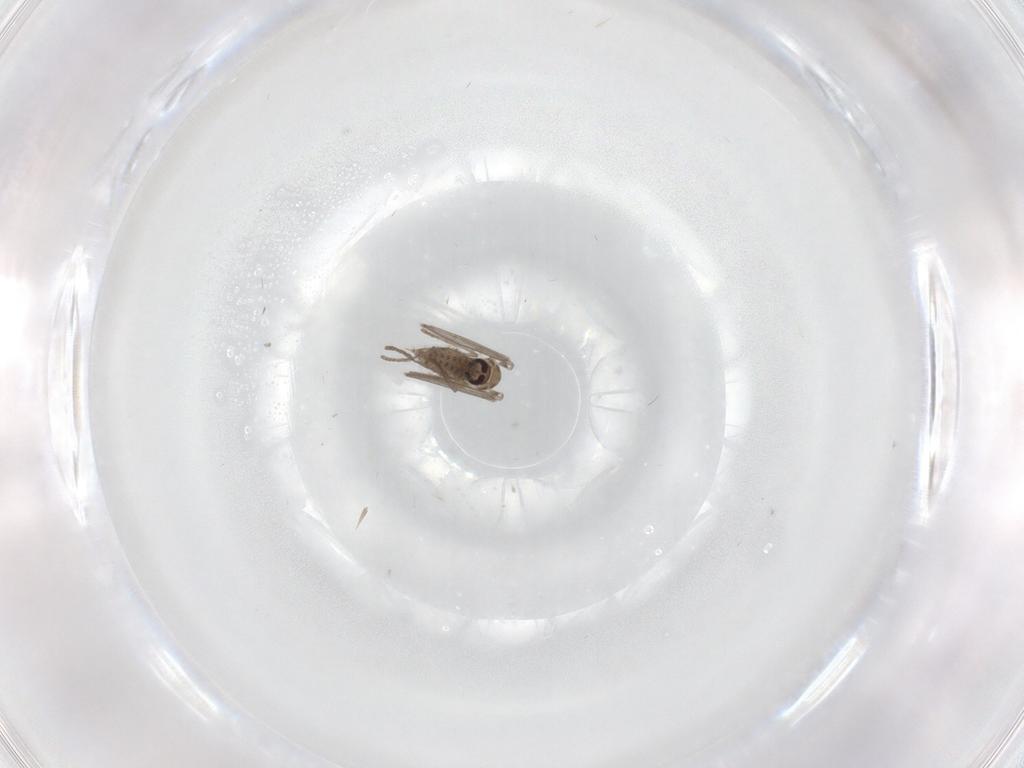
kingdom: Animalia
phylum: Arthropoda
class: Insecta
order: Diptera
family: Psychodidae
